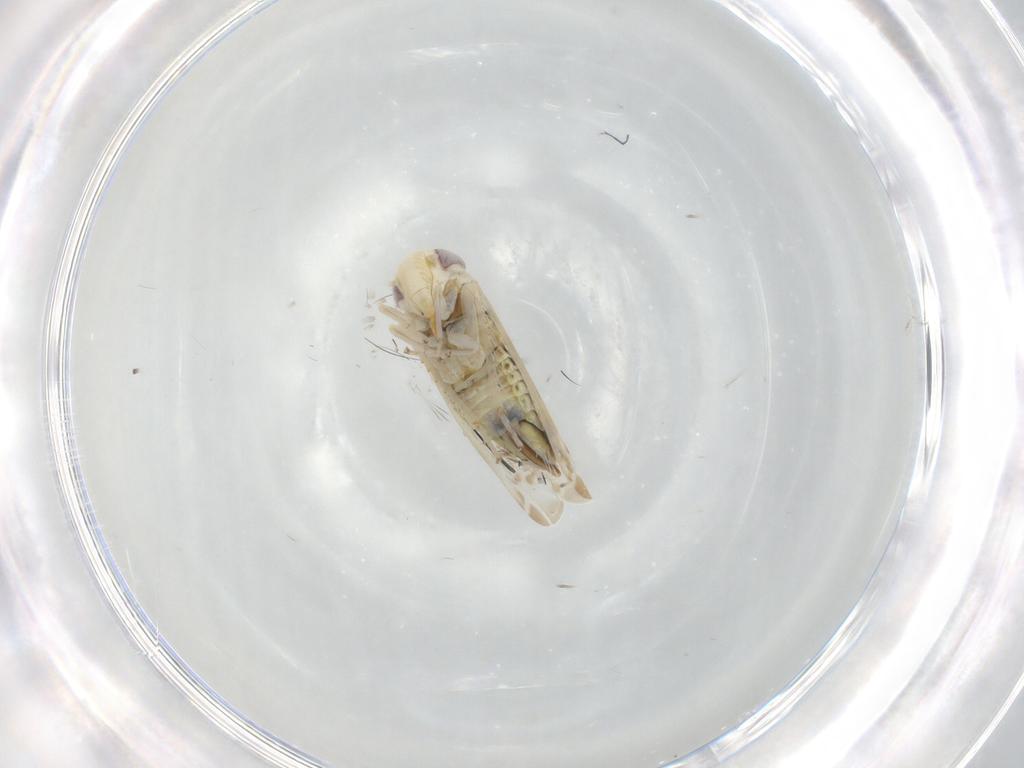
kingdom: Animalia
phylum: Arthropoda
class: Insecta
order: Hemiptera
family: Cicadellidae
